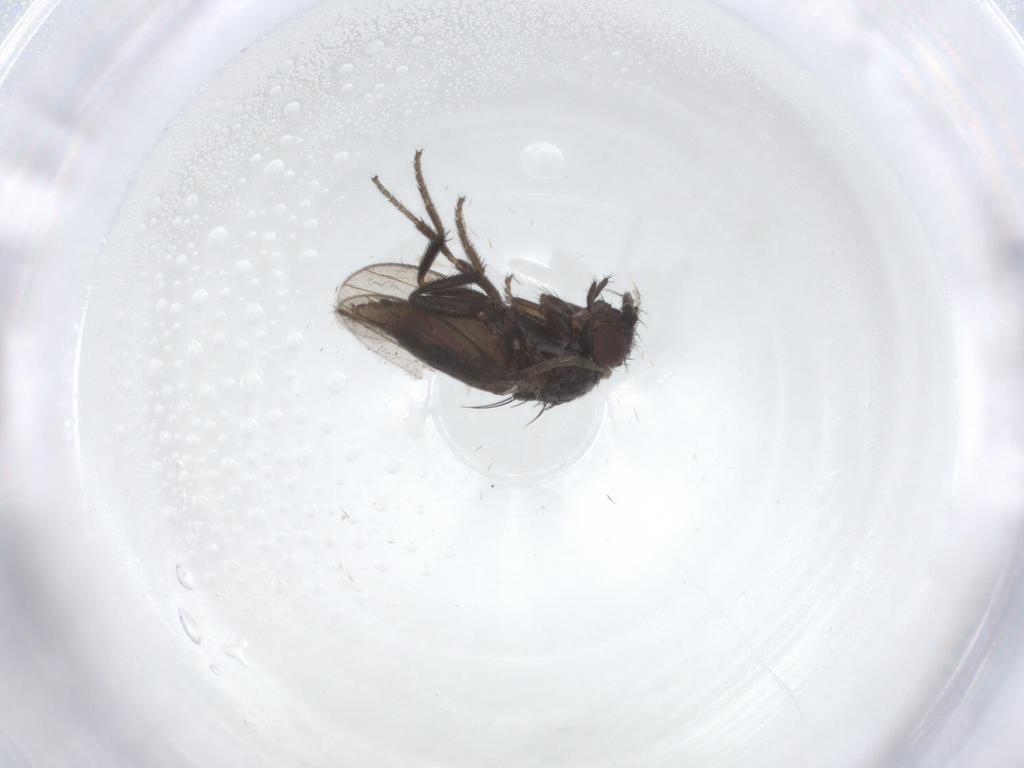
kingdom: Animalia
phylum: Arthropoda
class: Insecta
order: Diptera
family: Milichiidae
